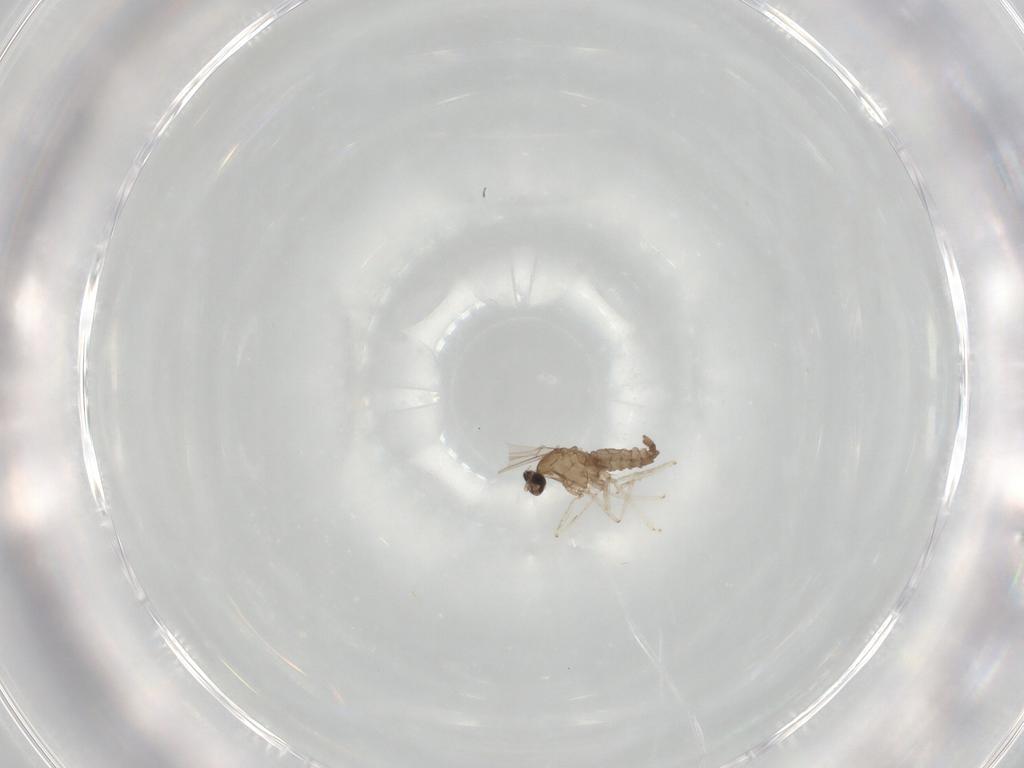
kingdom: Animalia
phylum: Arthropoda
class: Insecta
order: Diptera
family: Cecidomyiidae
